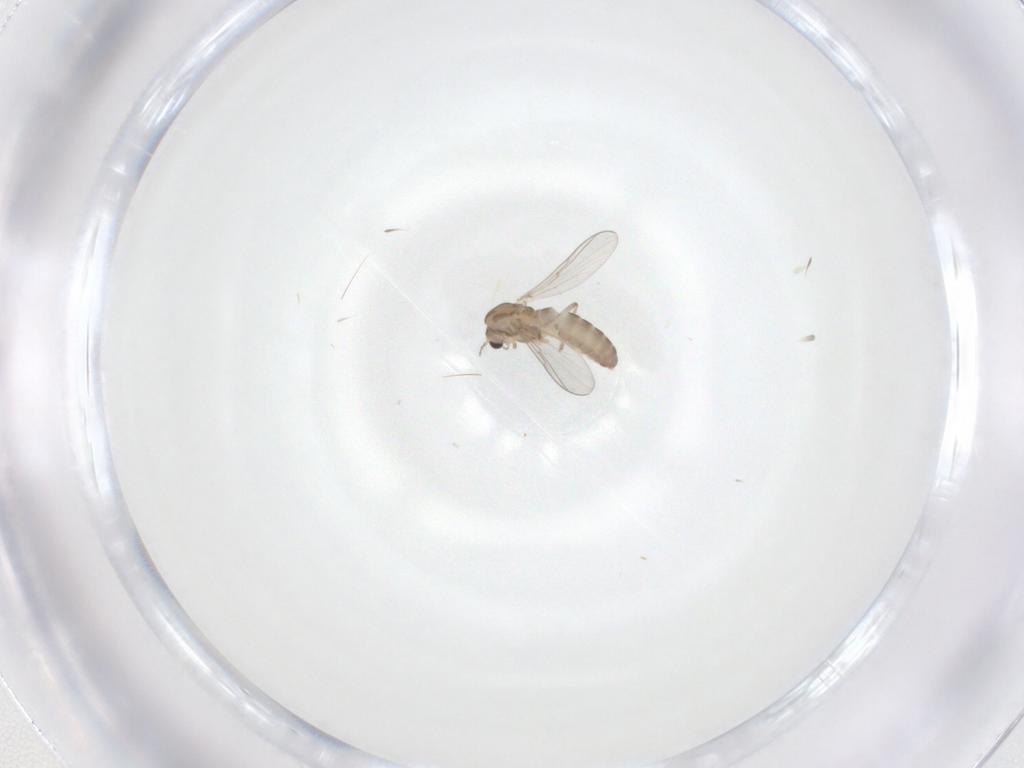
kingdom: Animalia
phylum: Arthropoda
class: Insecta
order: Diptera
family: Chironomidae
